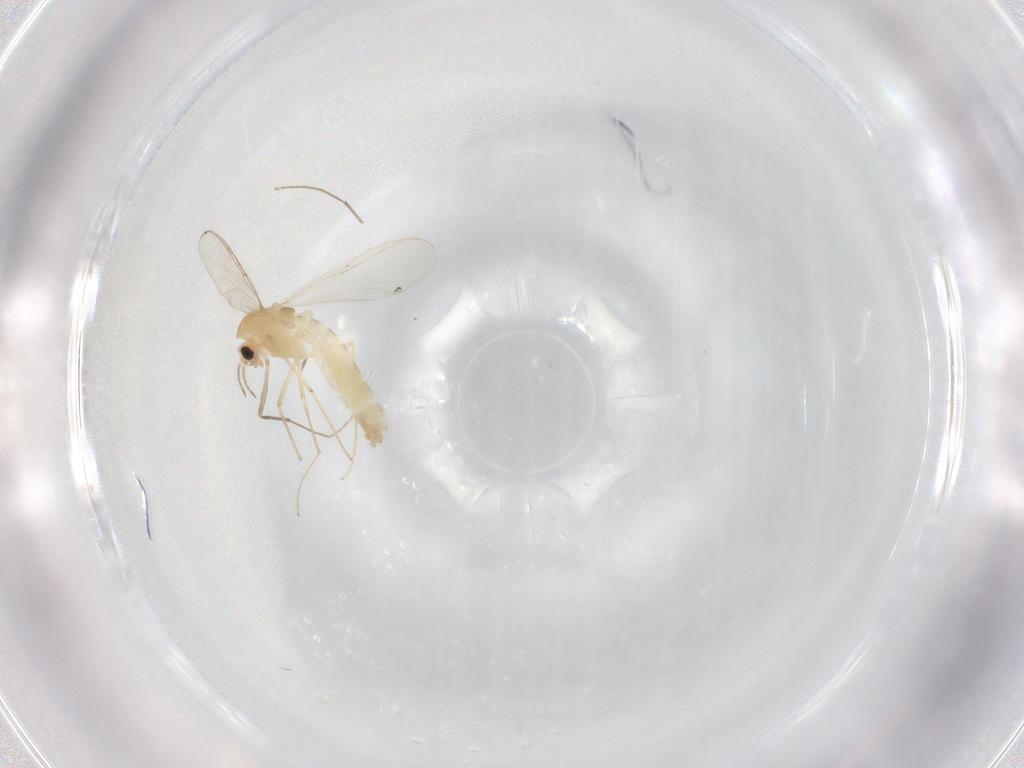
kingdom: Animalia
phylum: Arthropoda
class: Insecta
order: Diptera
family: Chironomidae
